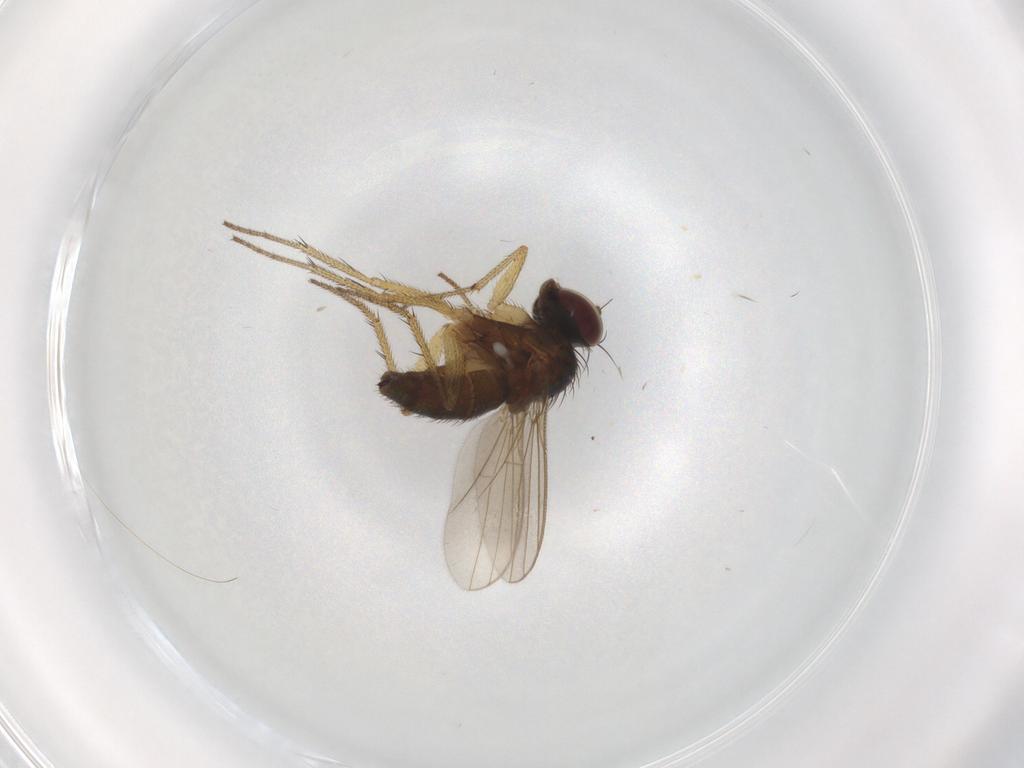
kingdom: Animalia
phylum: Arthropoda
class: Insecta
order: Diptera
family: Dolichopodidae
